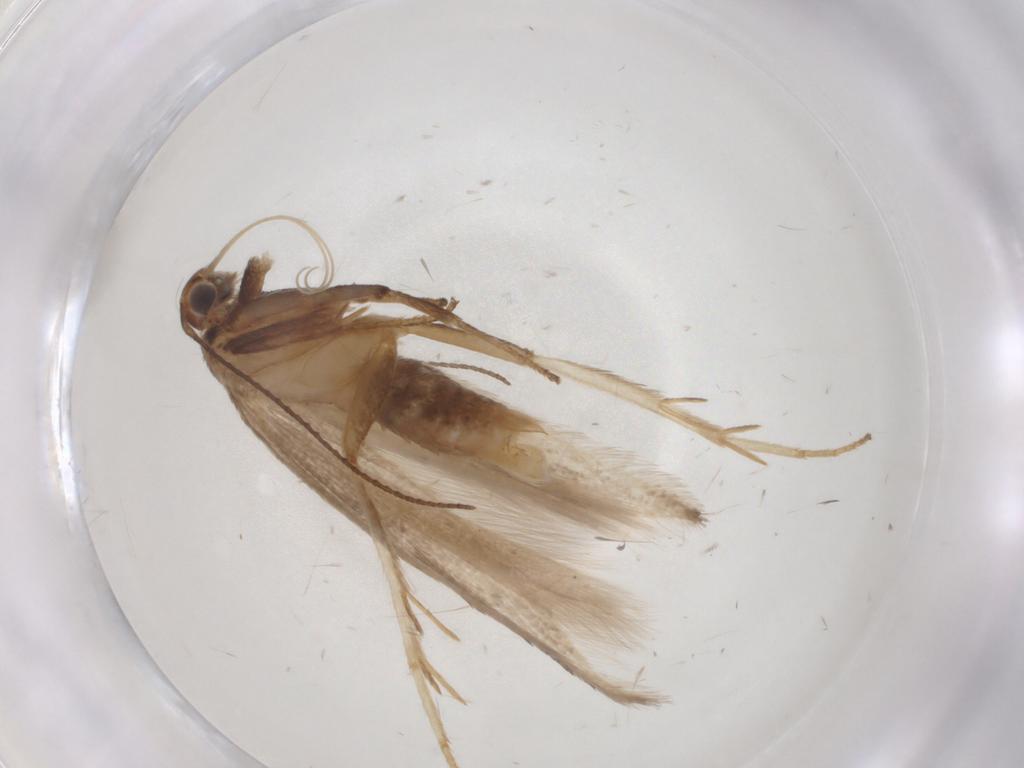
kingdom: Animalia
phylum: Arthropoda
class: Insecta
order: Lepidoptera
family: Gelechiidae
